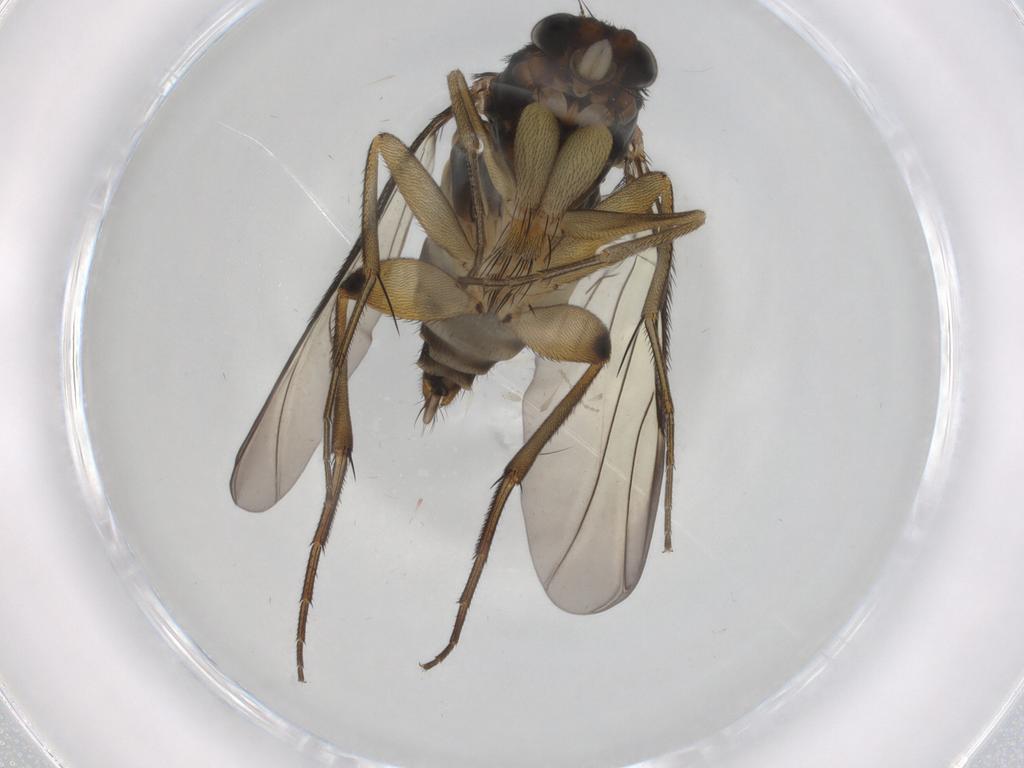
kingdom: Animalia
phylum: Arthropoda
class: Insecta
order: Diptera
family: Phoridae
